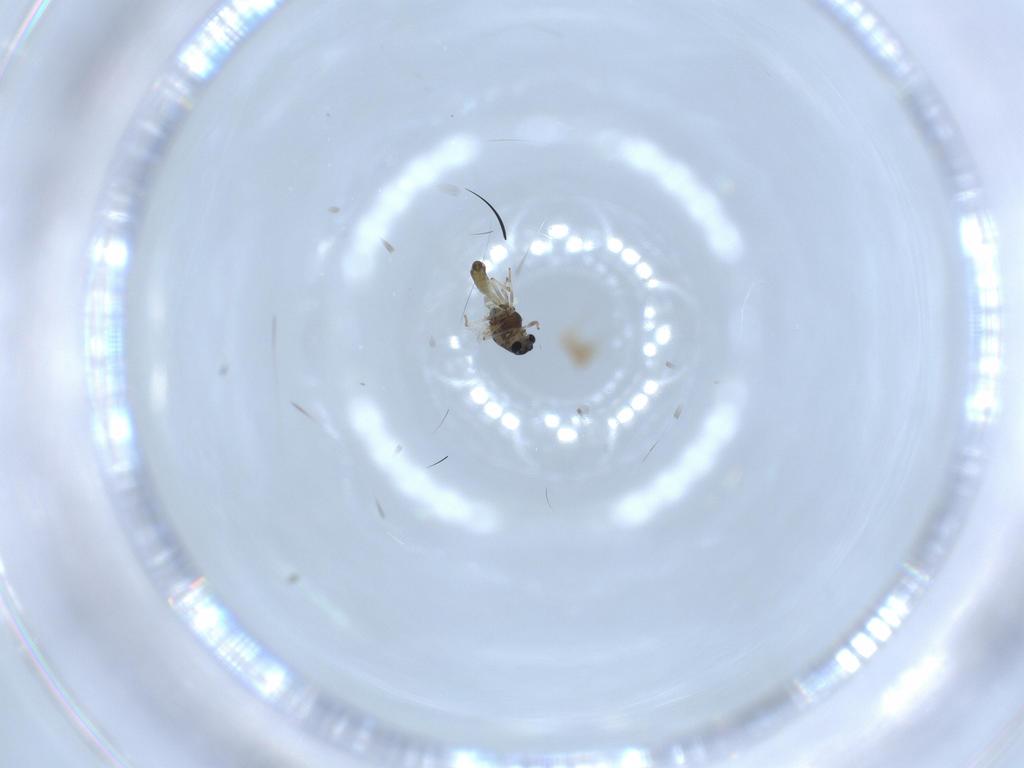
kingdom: Animalia
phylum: Arthropoda
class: Insecta
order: Diptera
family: Chironomidae
